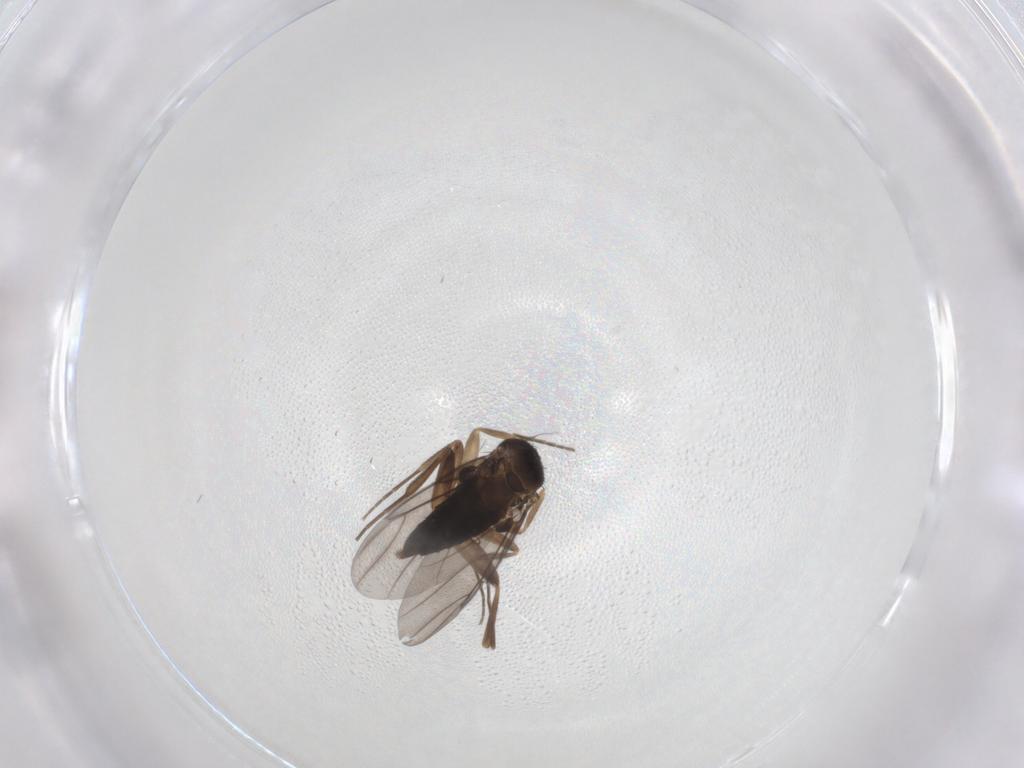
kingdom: Animalia
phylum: Arthropoda
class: Insecta
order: Diptera
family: Phoridae
